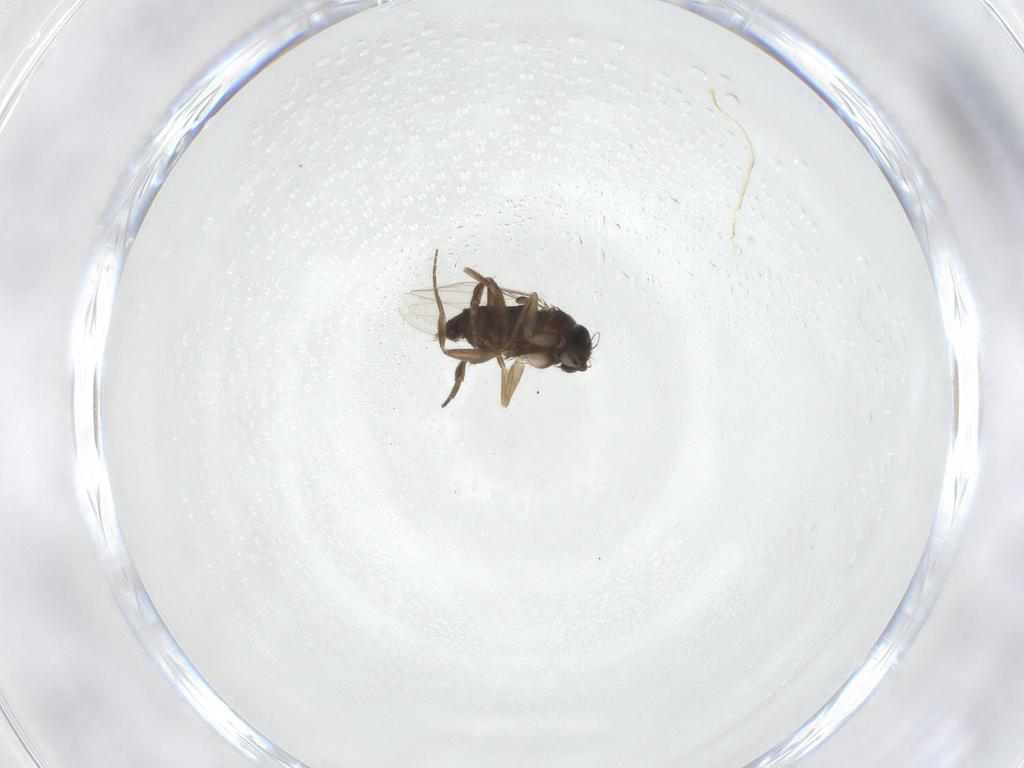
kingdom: Animalia
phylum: Arthropoda
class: Insecta
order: Diptera
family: Phoridae
